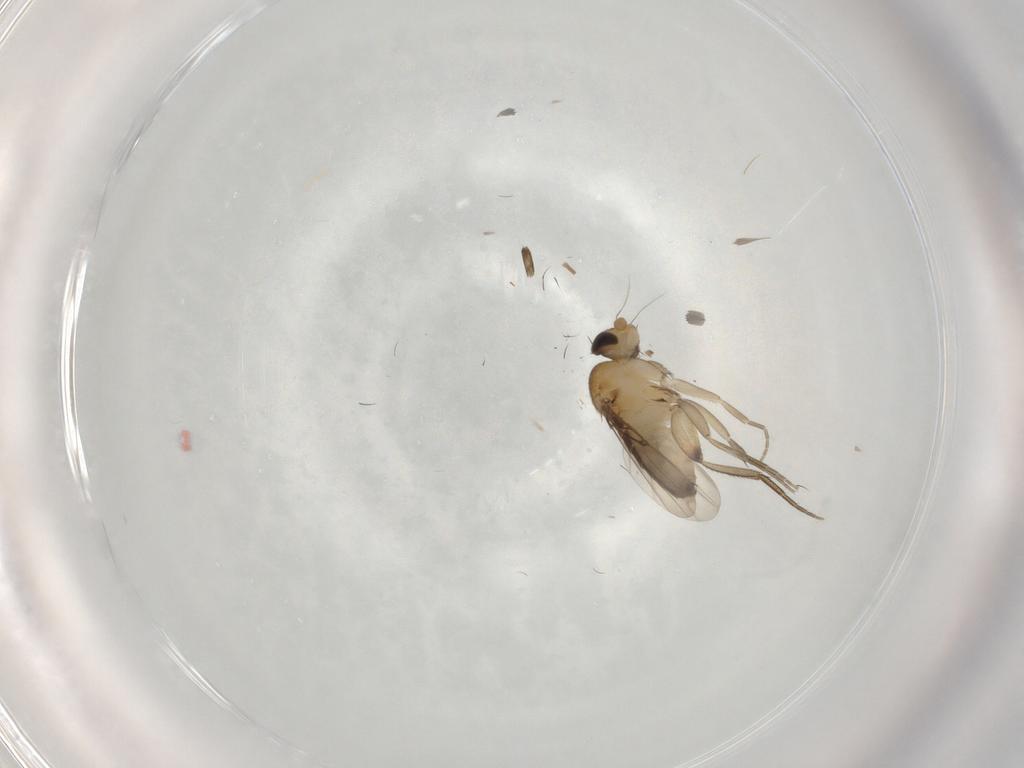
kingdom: Animalia
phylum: Arthropoda
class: Insecta
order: Diptera
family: Phoridae
